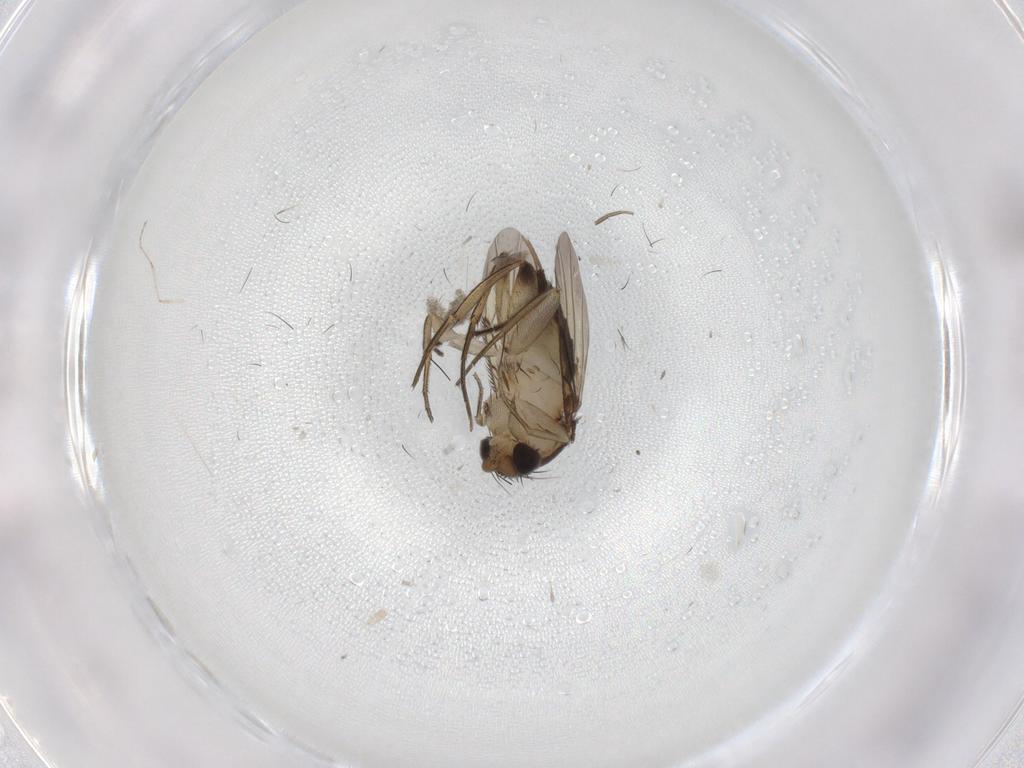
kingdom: Animalia
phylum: Arthropoda
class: Insecta
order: Diptera
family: Phoridae
